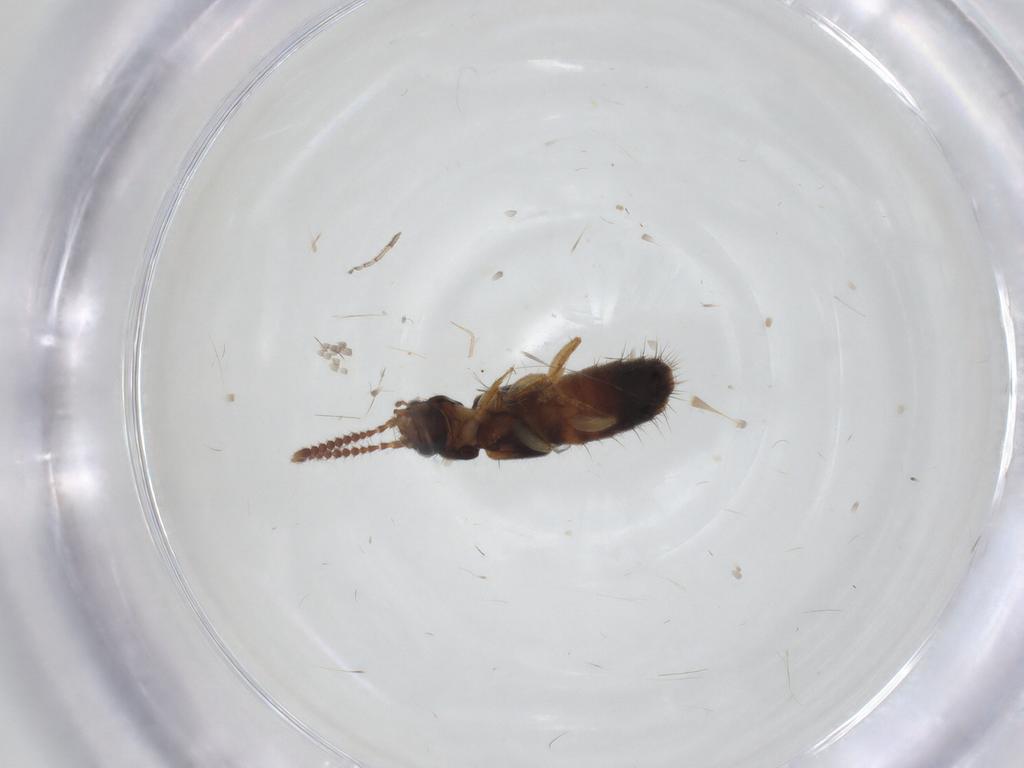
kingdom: Animalia
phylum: Arthropoda
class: Insecta
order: Coleoptera
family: Staphylinidae
